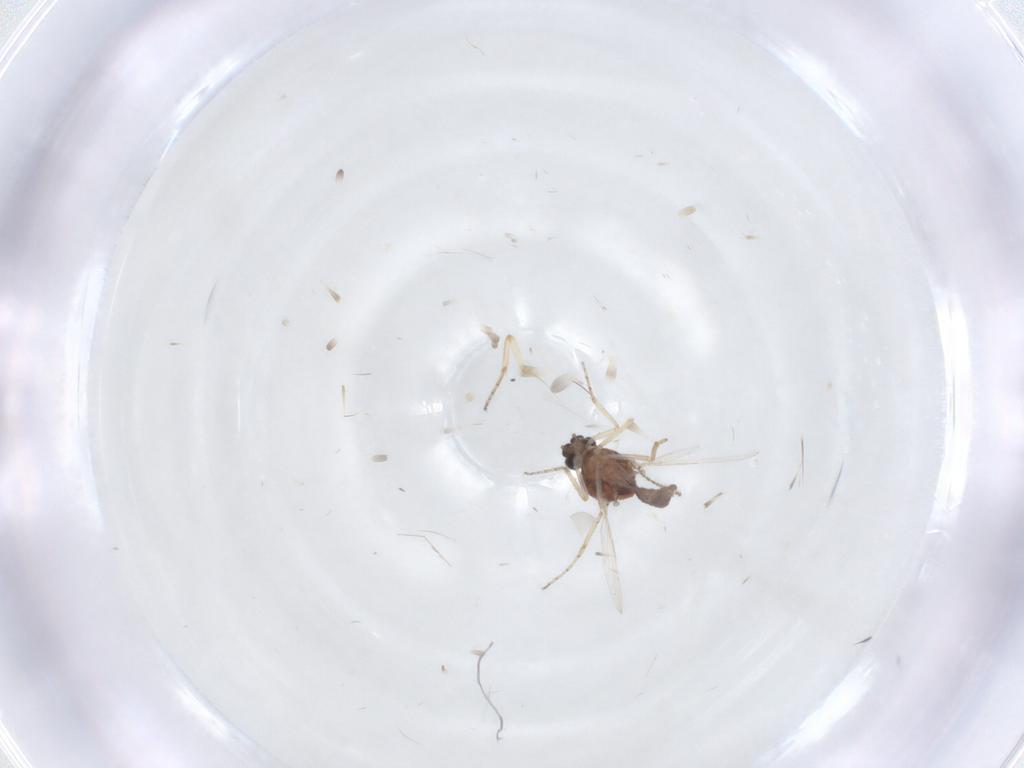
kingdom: Animalia
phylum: Arthropoda
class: Insecta
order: Diptera
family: Ceratopogonidae
